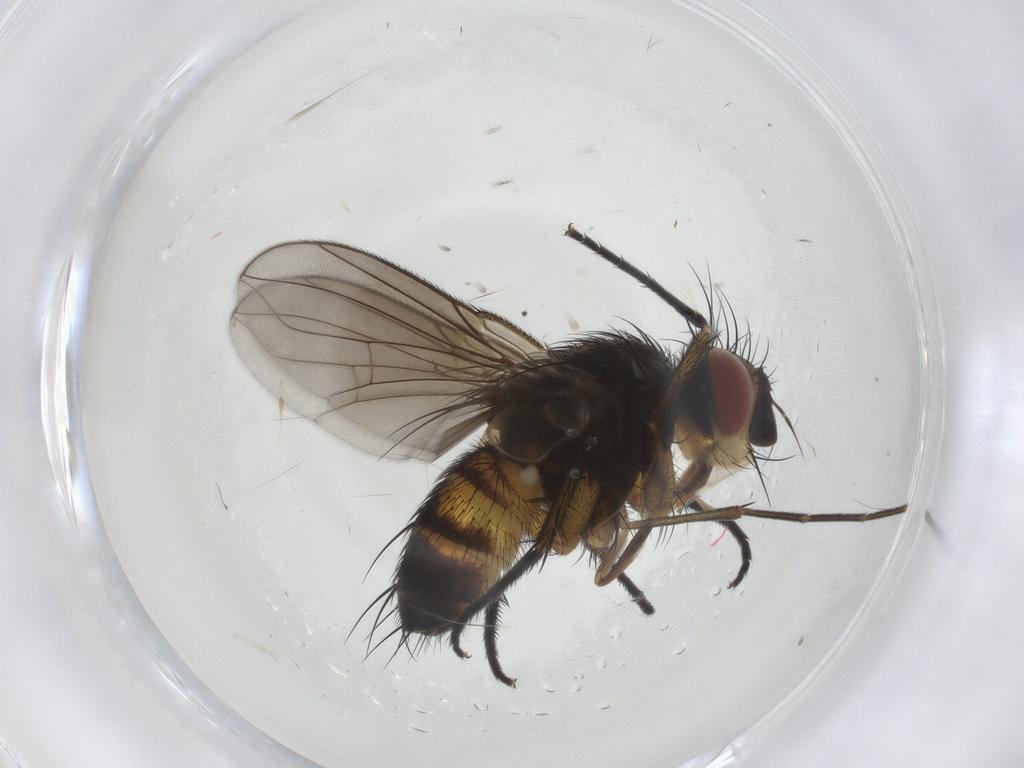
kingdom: Animalia
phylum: Arthropoda
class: Insecta
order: Diptera
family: Tachinidae
